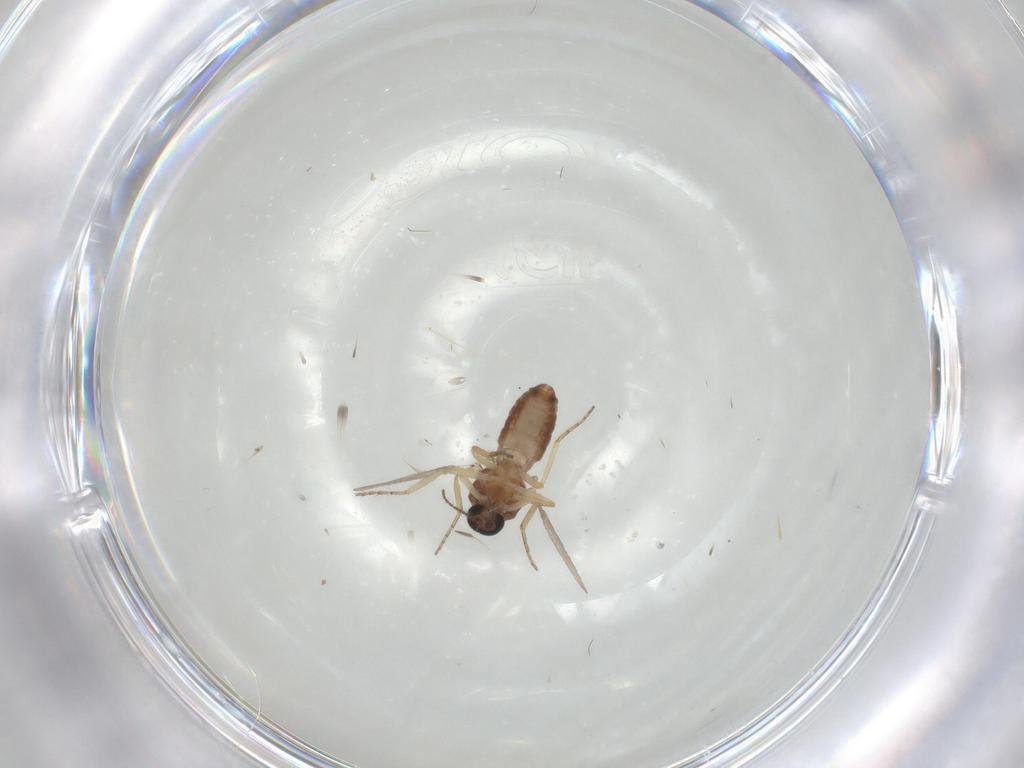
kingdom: Animalia
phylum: Arthropoda
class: Insecta
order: Diptera
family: Ceratopogonidae
